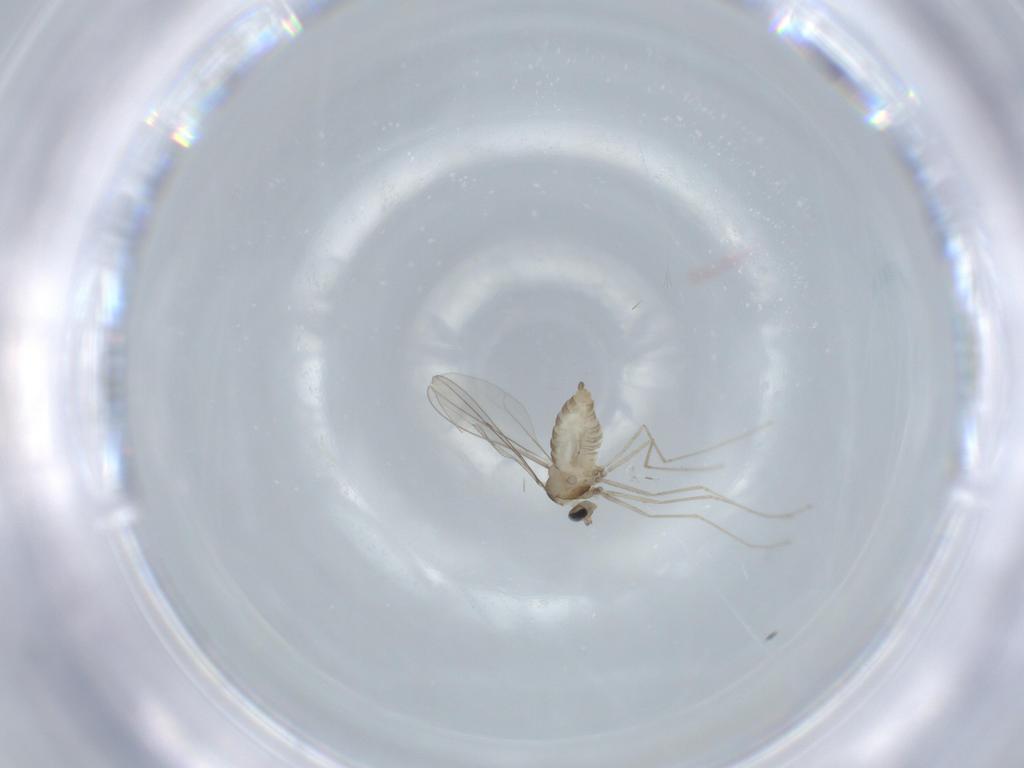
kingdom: Animalia
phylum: Arthropoda
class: Insecta
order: Diptera
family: Cecidomyiidae
